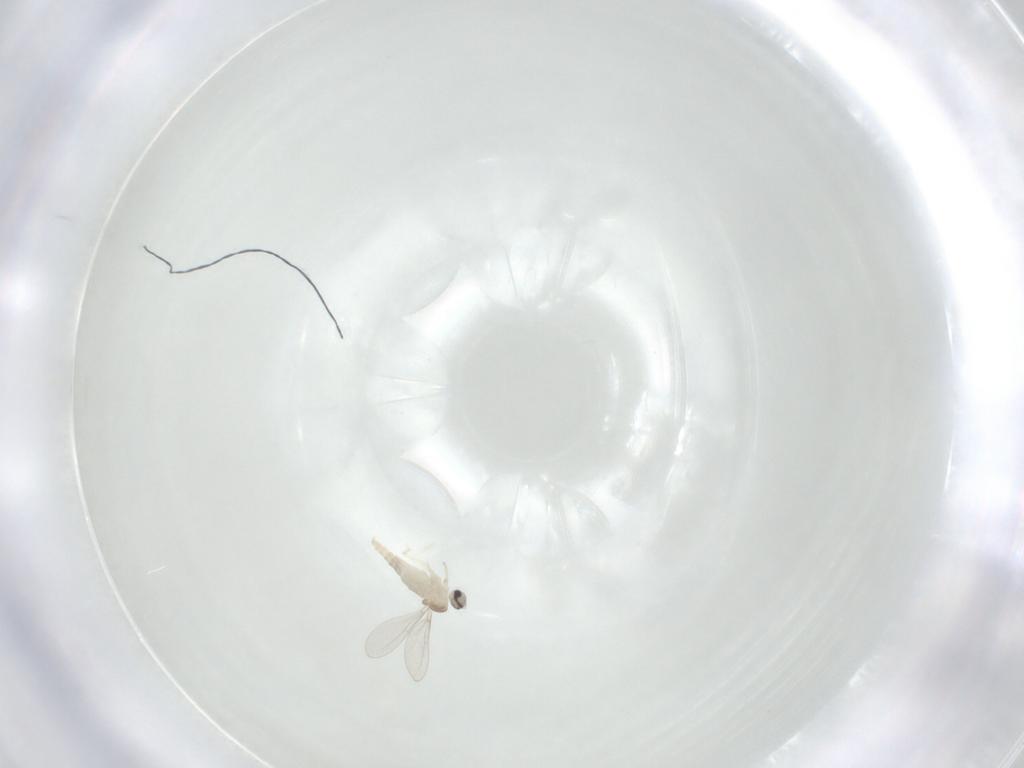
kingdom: Animalia
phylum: Arthropoda
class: Insecta
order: Diptera
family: Cecidomyiidae
